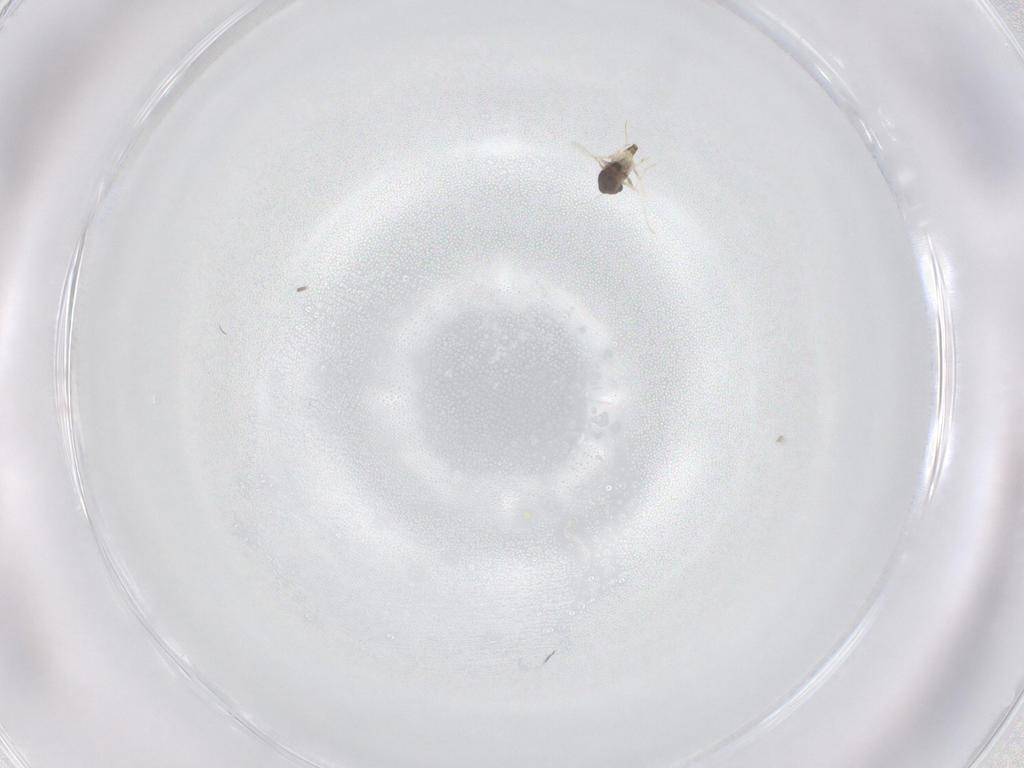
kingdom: Animalia
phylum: Arthropoda
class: Insecta
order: Diptera
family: Chironomidae
